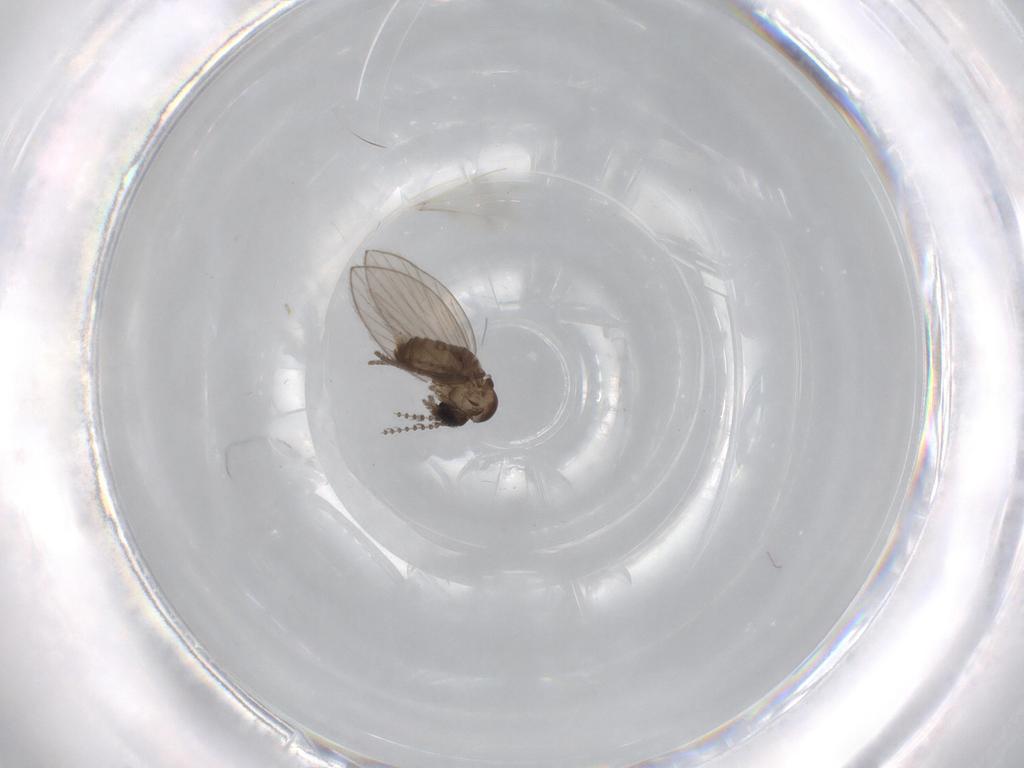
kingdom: Animalia
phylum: Arthropoda
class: Insecta
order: Diptera
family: Psychodidae
